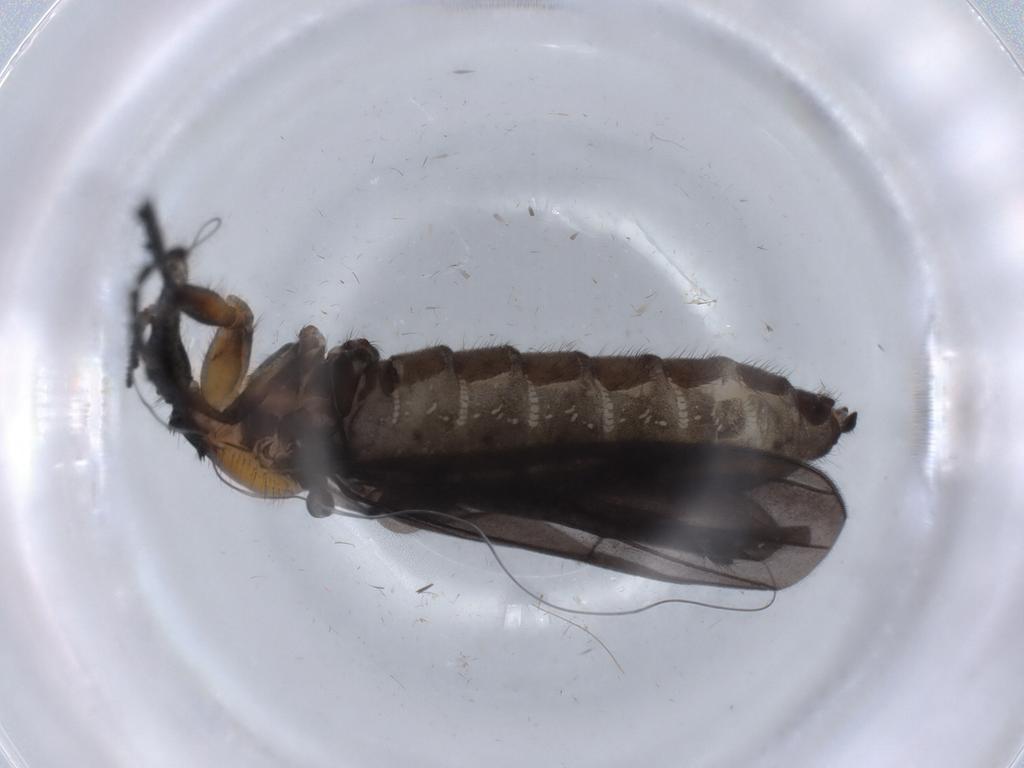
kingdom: Animalia
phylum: Arthropoda
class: Insecta
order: Diptera
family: Bibionidae
